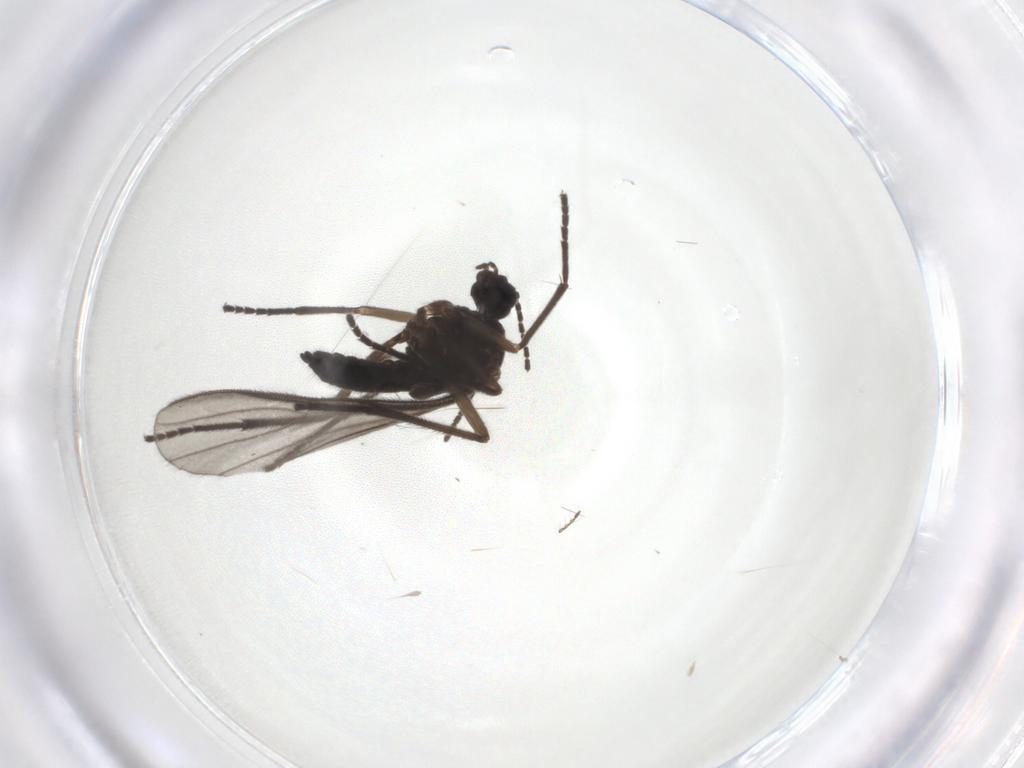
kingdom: Animalia
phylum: Arthropoda
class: Insecta
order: Diptera
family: Sciaridae
